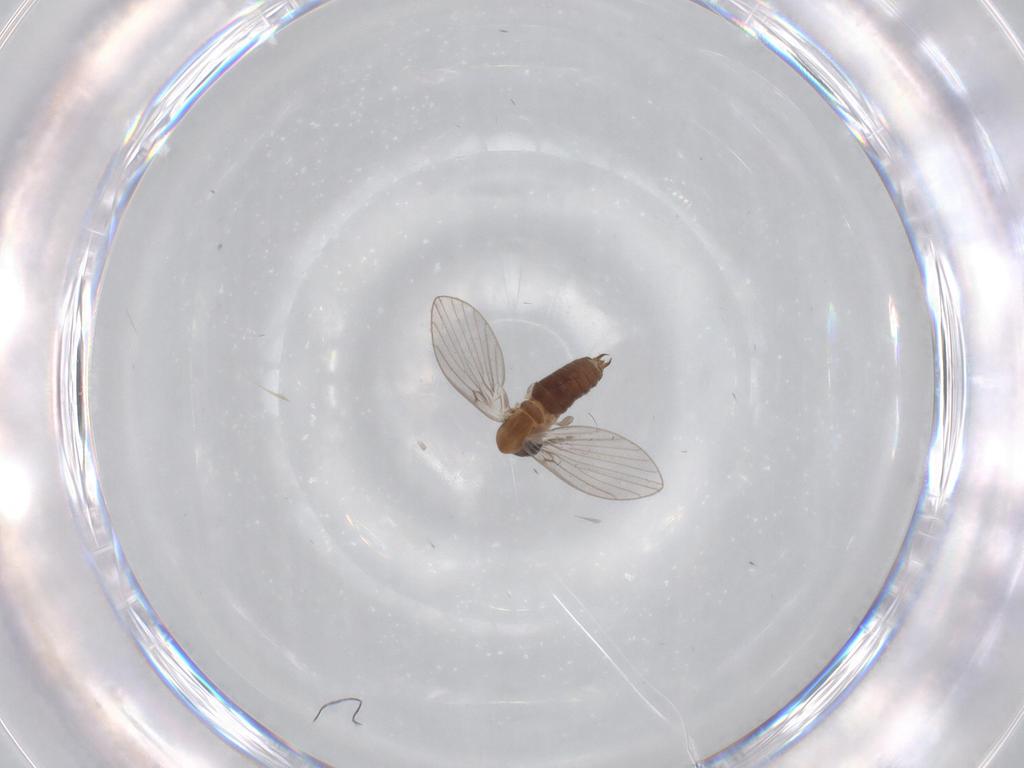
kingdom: Animalia
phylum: Arthropoda
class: Insecta
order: Diptera
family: Psychodidae
